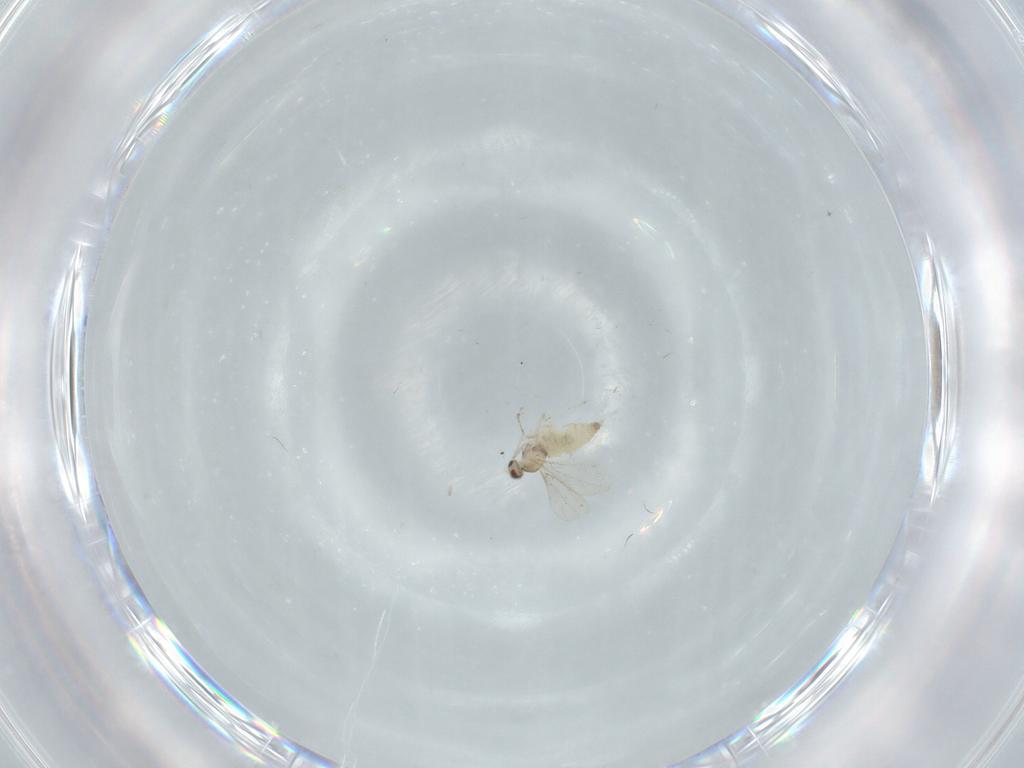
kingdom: Animalia
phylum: Arthropoda
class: Insecta
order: Diptera
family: Cecidomyiidae
